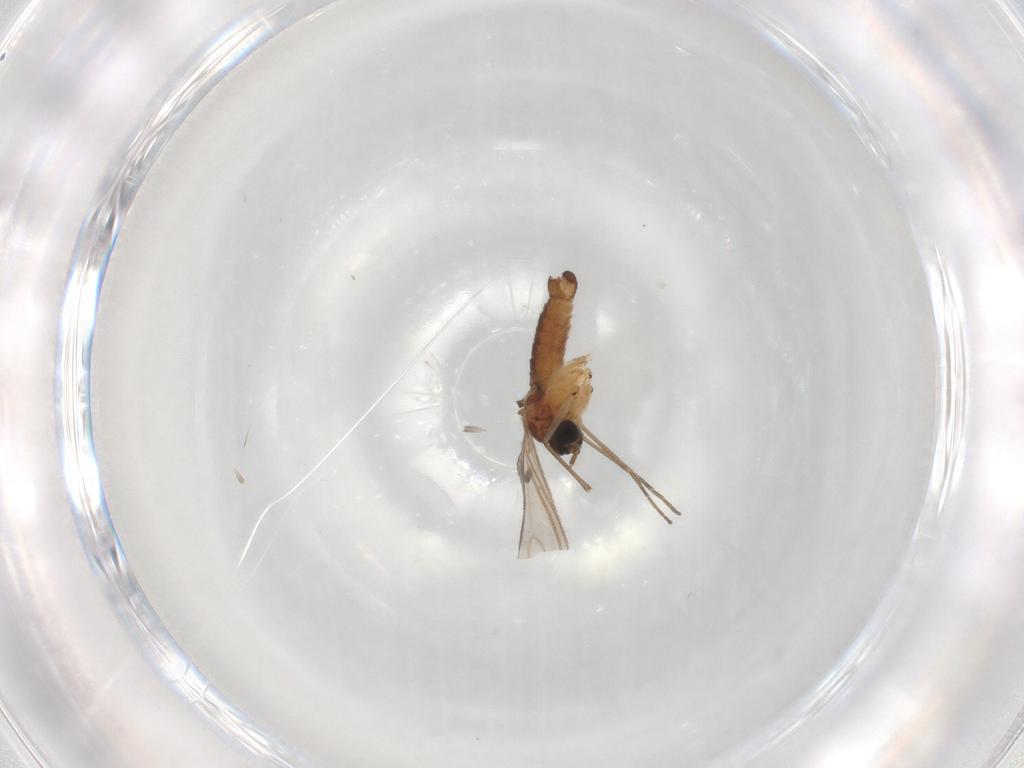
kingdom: Animalia
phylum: Arthropoda
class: Insecta
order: Diptera
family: Sciaridae
